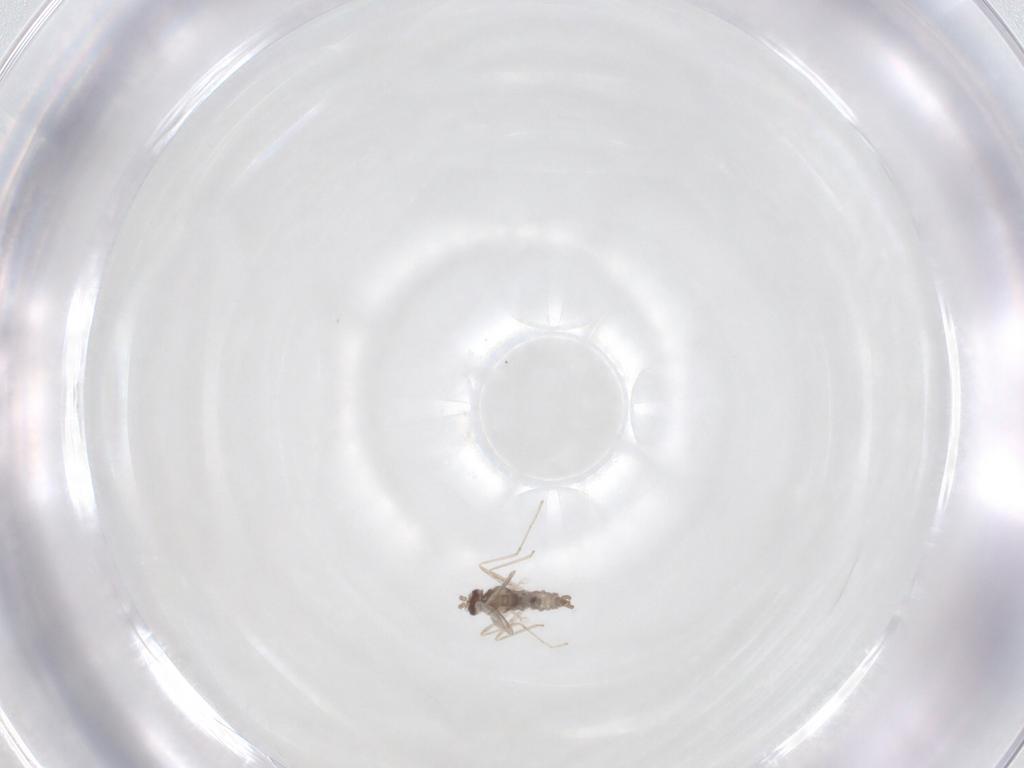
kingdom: Animalia
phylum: Arthropoda
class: Insecta
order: Diptera
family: Cecidomyiidae
